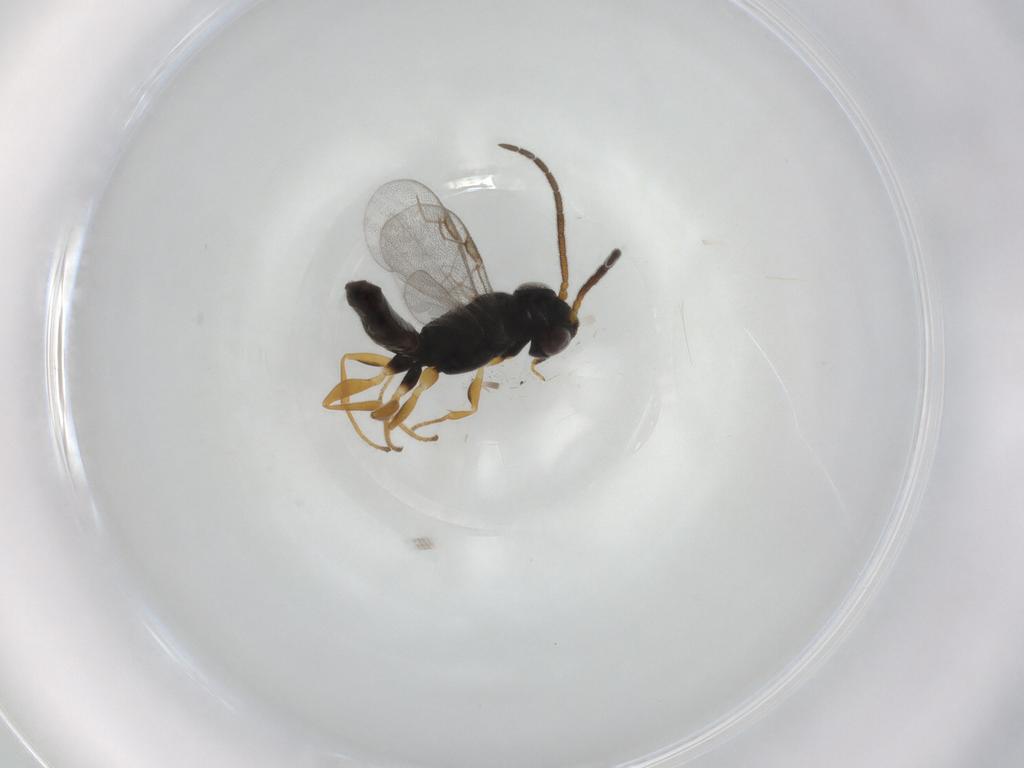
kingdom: Animalia
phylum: Arthropoda
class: Insecta
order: Hymenoptera
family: Dryinidae
